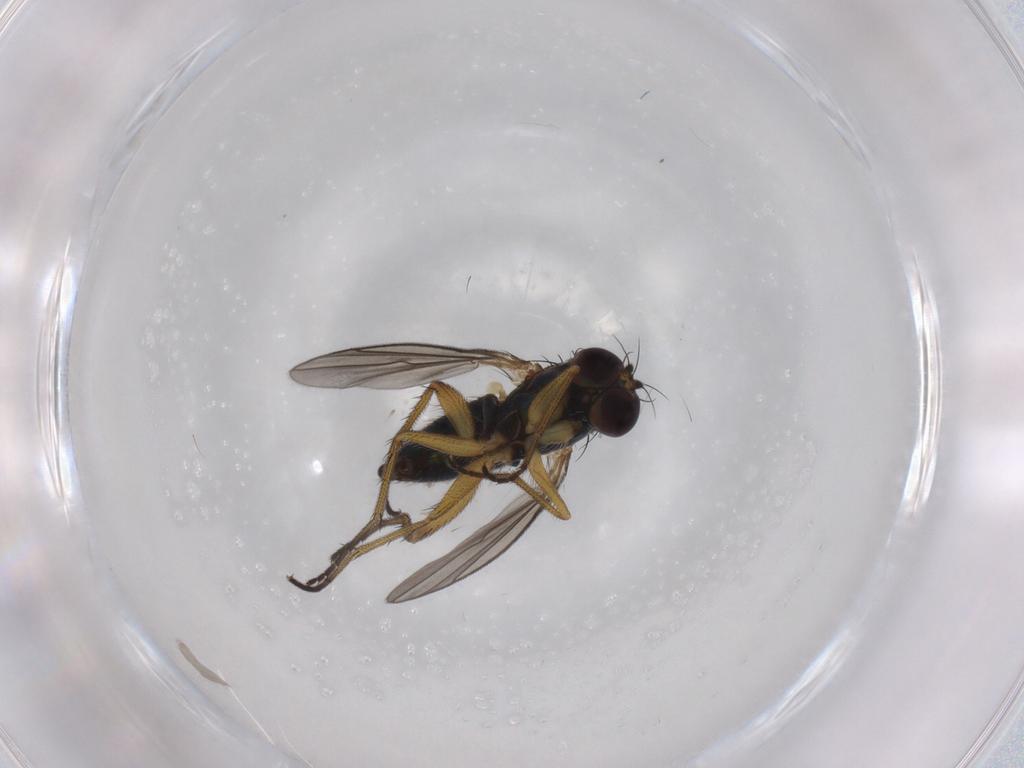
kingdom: Animalia
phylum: Arthropoda
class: Insecta
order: Diptera
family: Dolichopodidae
